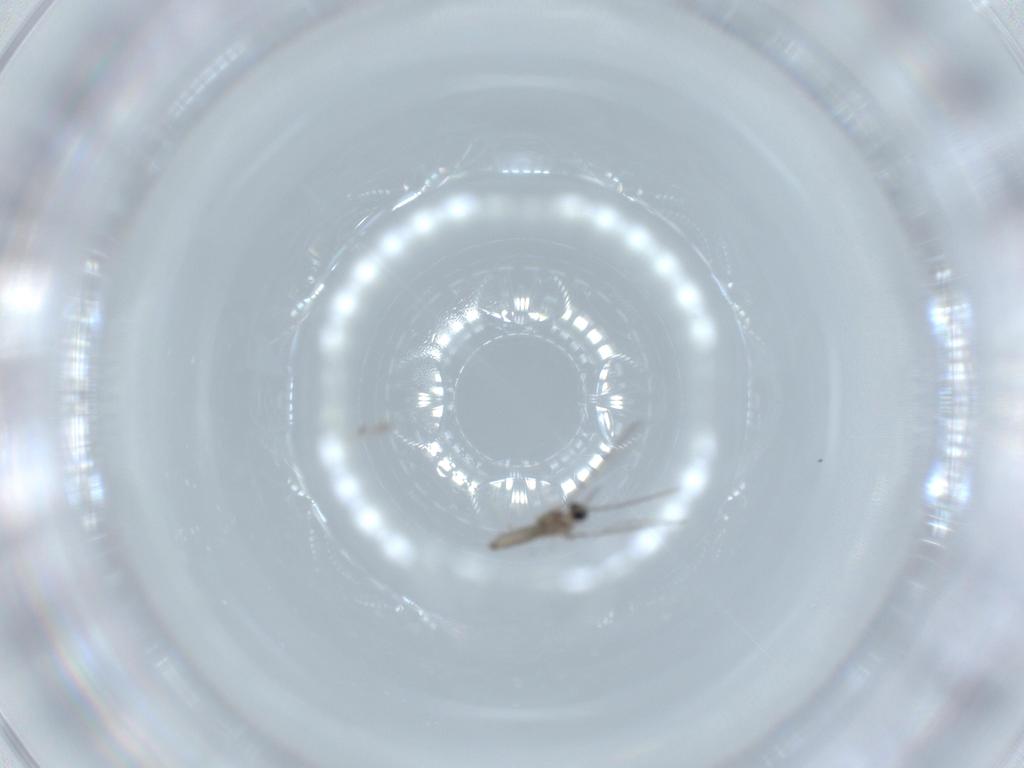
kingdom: Animalia
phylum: Arthropoda
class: Insecta
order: Diptera
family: Cecidomyiidae
